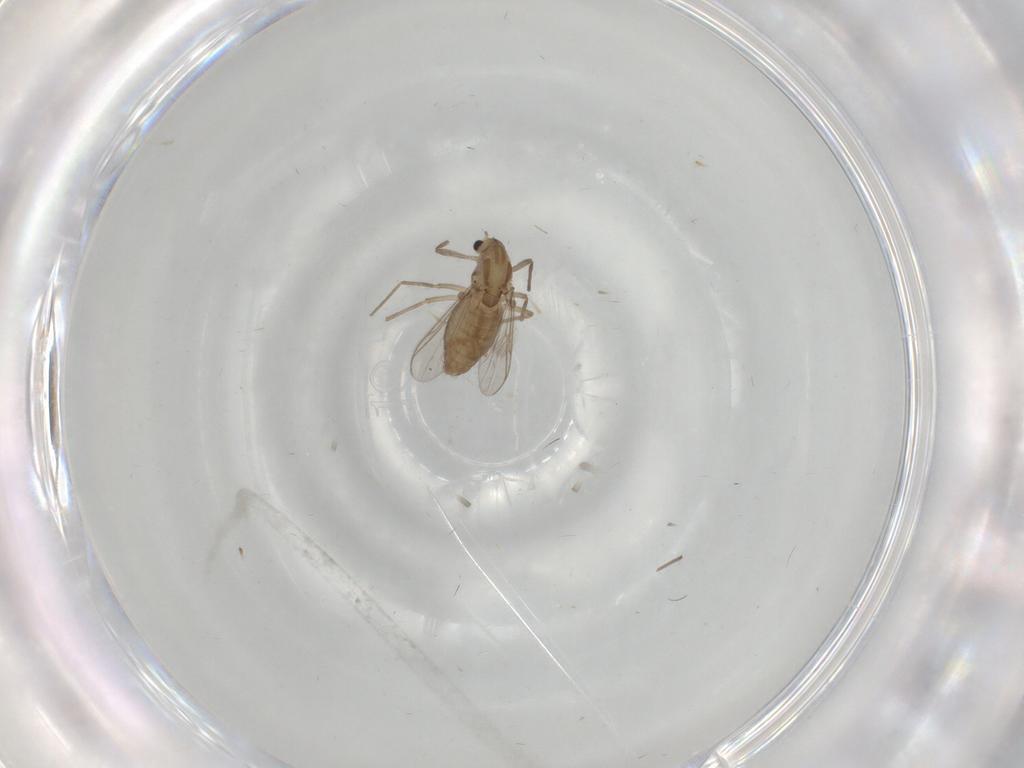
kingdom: Animalia
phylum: Arthropoda
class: Insecta
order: Diptera
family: Chironomidae
